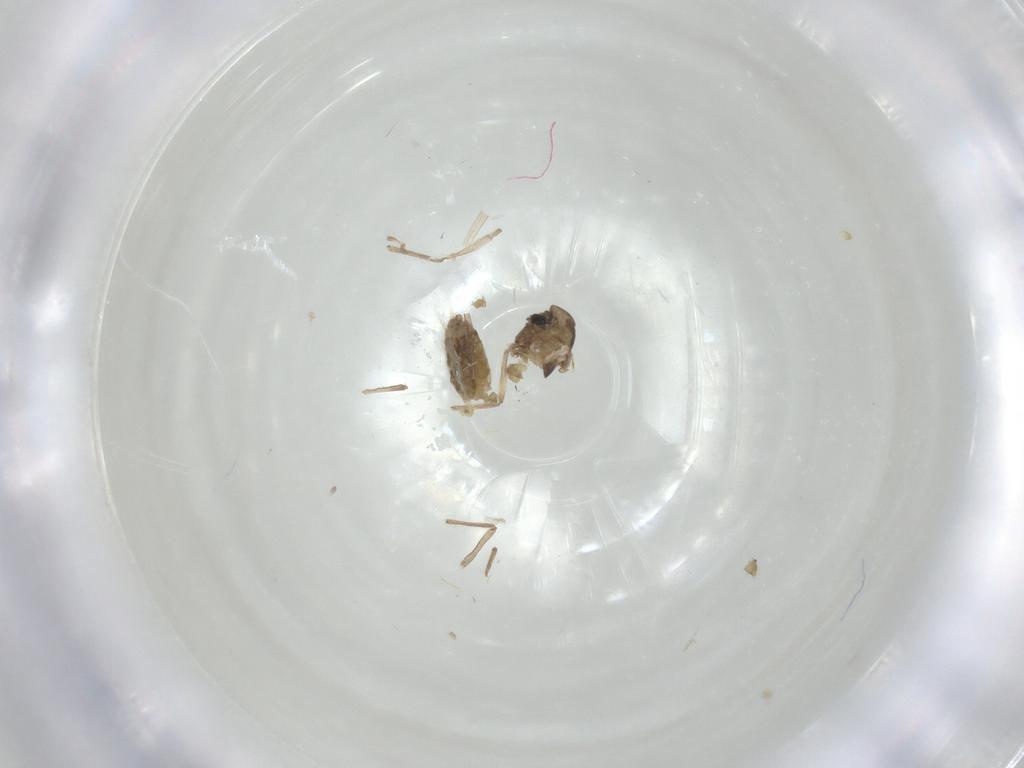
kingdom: Animalia
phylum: Arthropoda
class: Insecta
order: Diptera
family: Chironomidae
